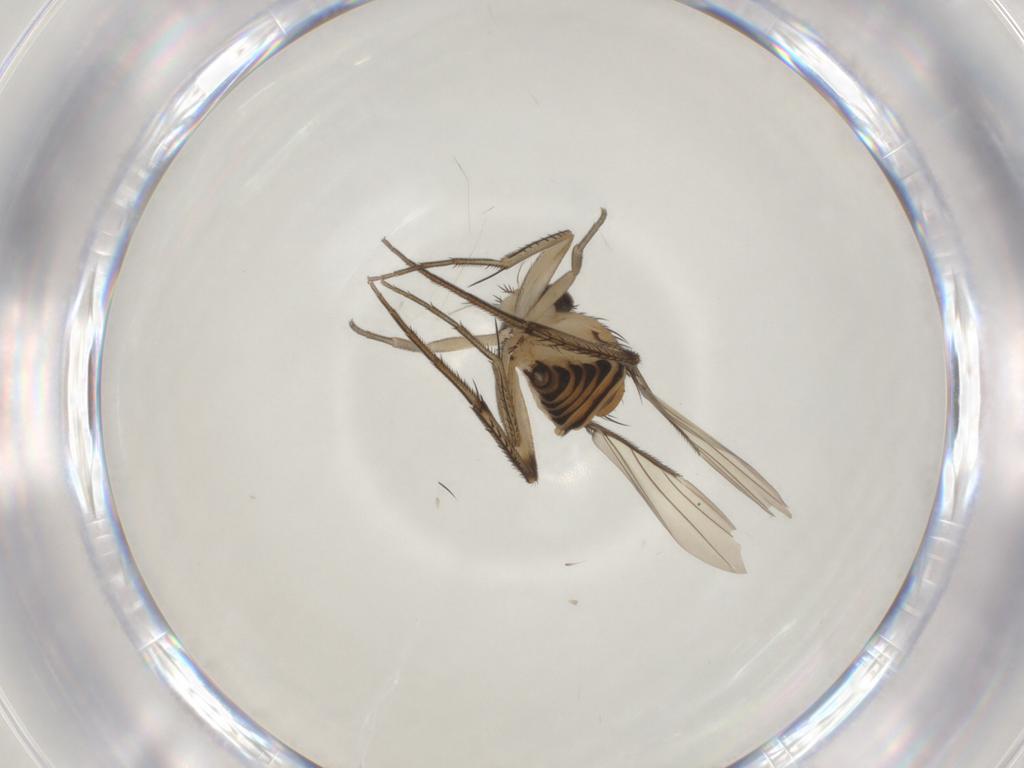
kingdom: Animalia
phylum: Arthropoda
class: Insecta
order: Diptera
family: Phoridae
